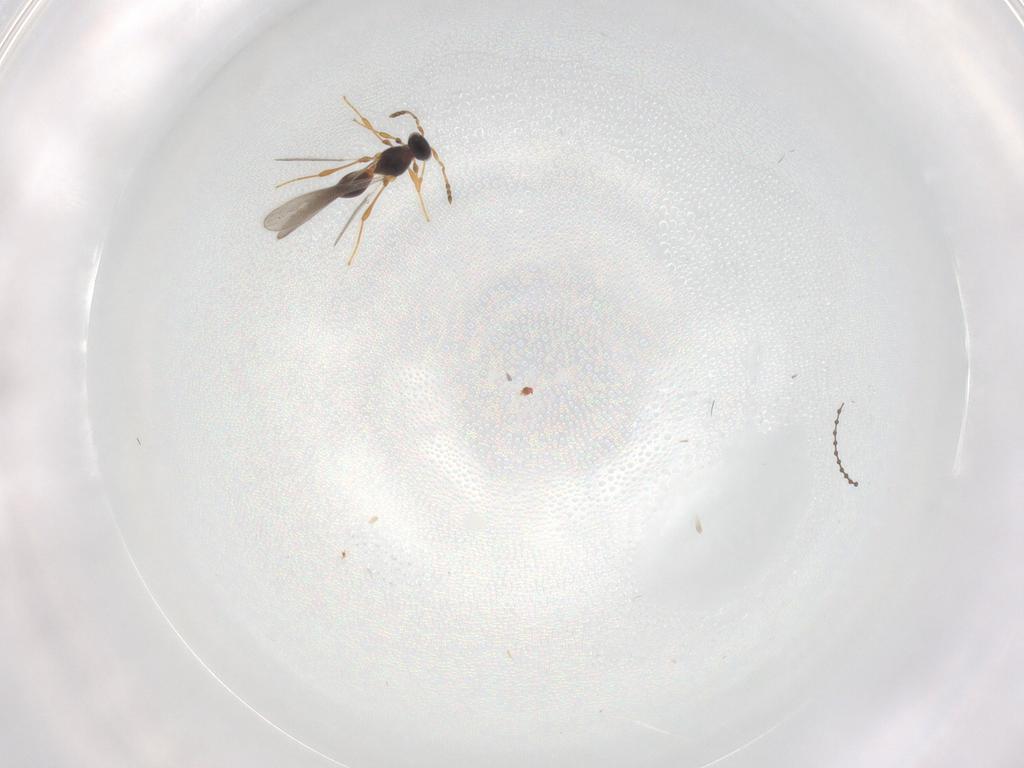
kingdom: Animalia
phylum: Arthropoda
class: Insecta
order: Hymenoptera
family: Platygastridae
